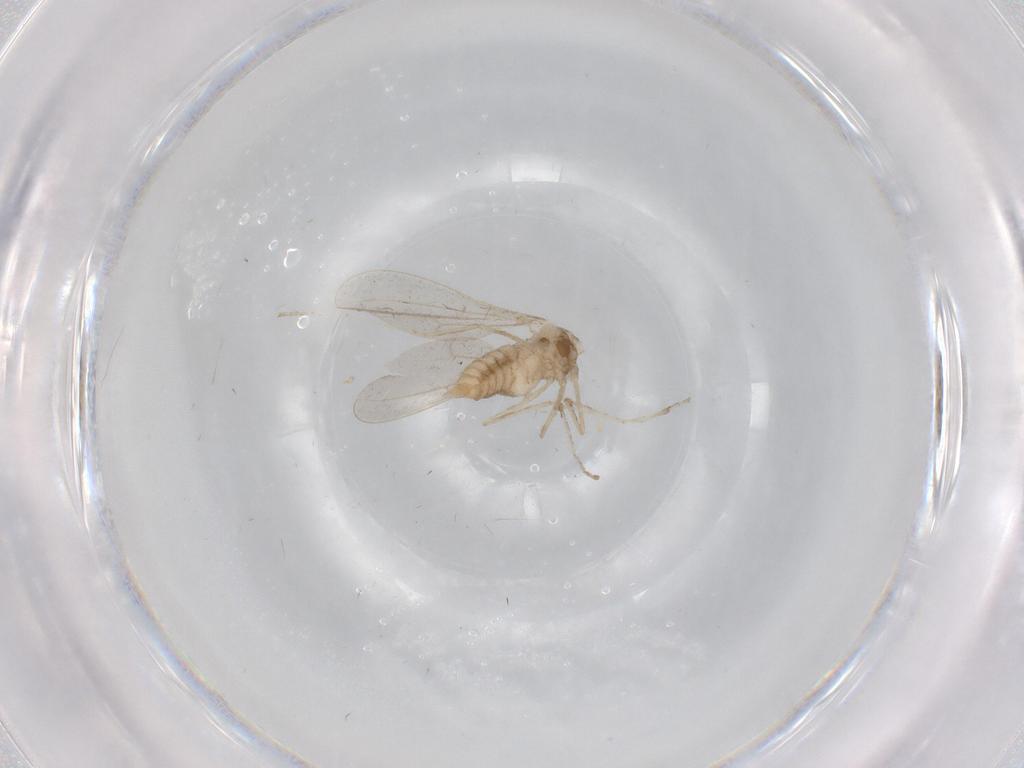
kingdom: Animalia
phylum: Arthropoda
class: Insecta
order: Diptera
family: Cecidomyiidae
